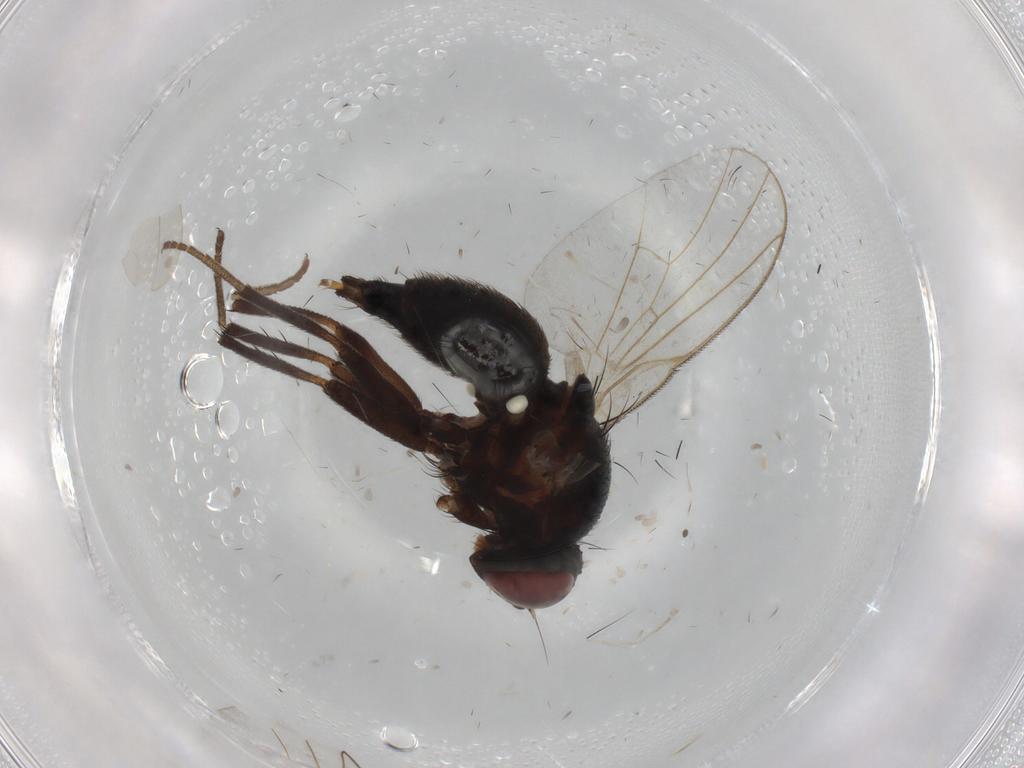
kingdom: Animalia
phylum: Arthropoda
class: Insecta
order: Diptera
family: Agromyzidae
